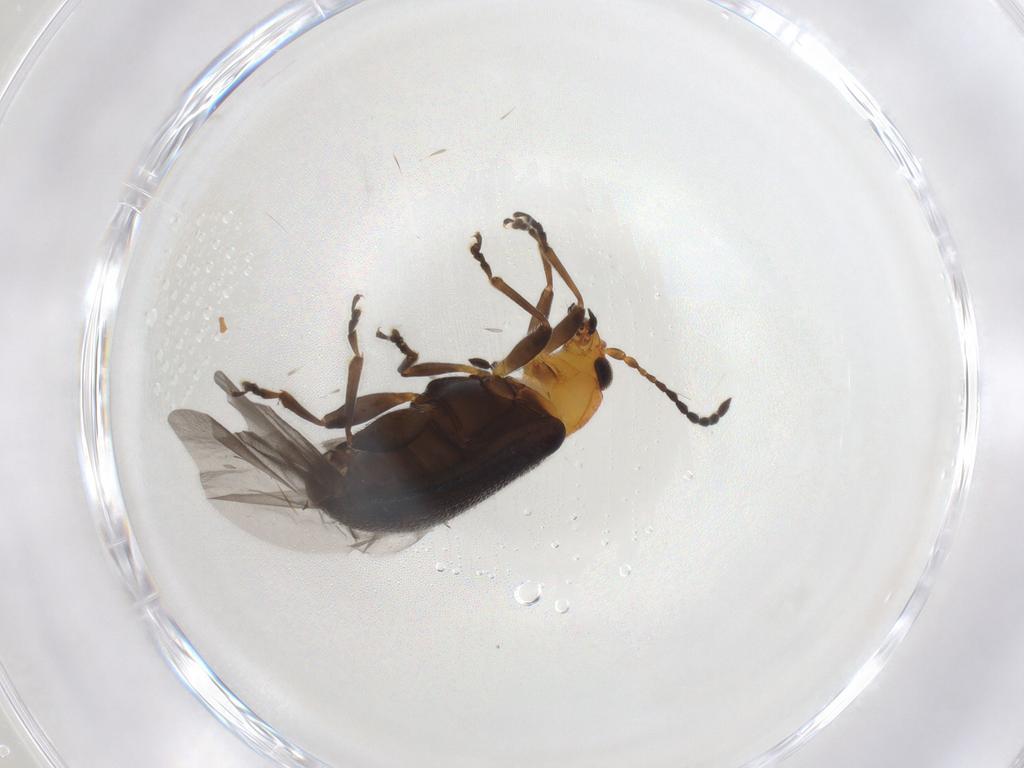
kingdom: Animalia
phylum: Arthropoda
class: Insecta
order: Coleoptera
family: Chrysomelidae
